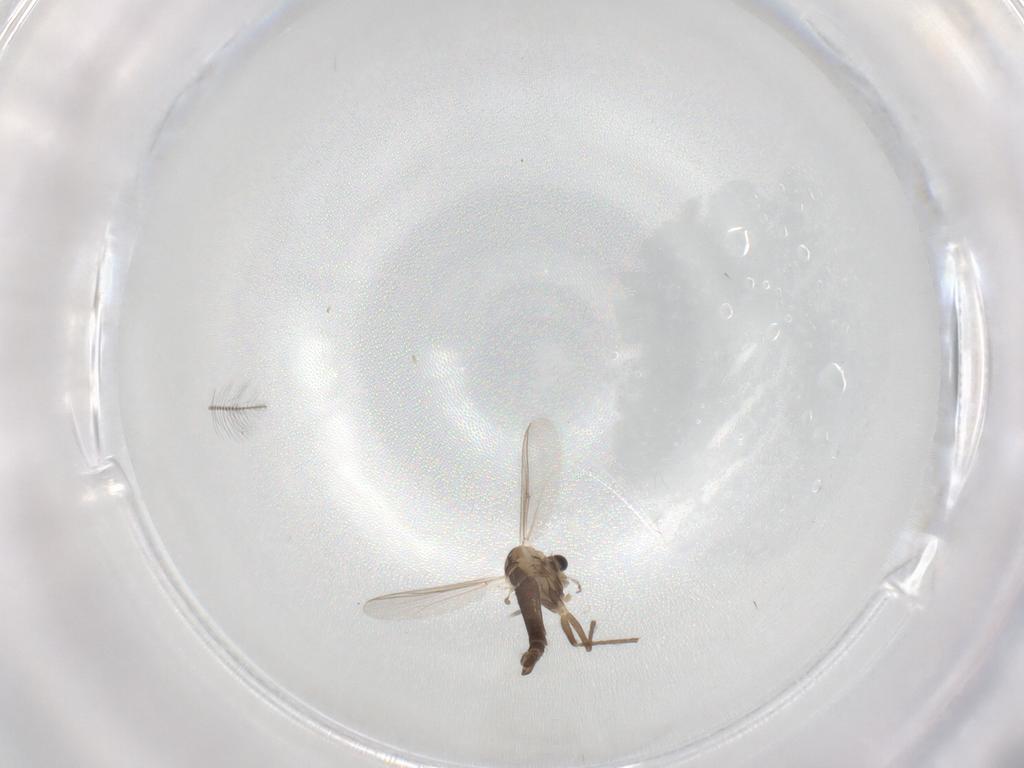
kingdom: Animalia
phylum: Arthropoda
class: Insecta
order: Diptera
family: Chironomidae
